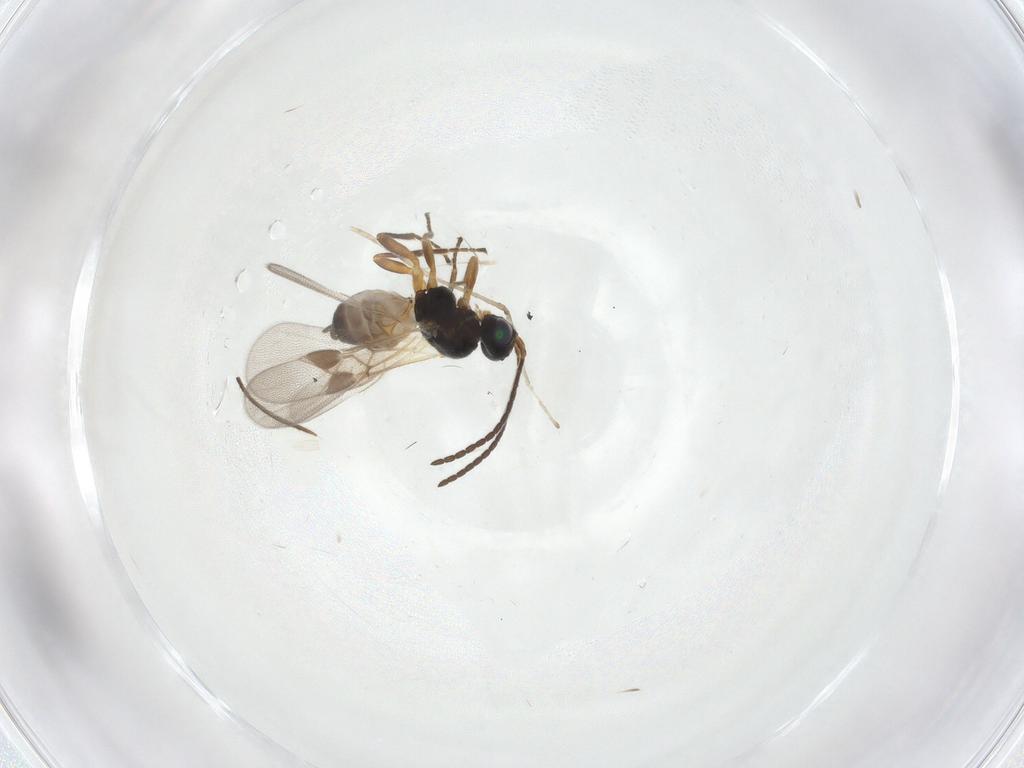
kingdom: Animalia
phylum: Arthropoda
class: Insecta
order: Hymenoptera
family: Braconidae
